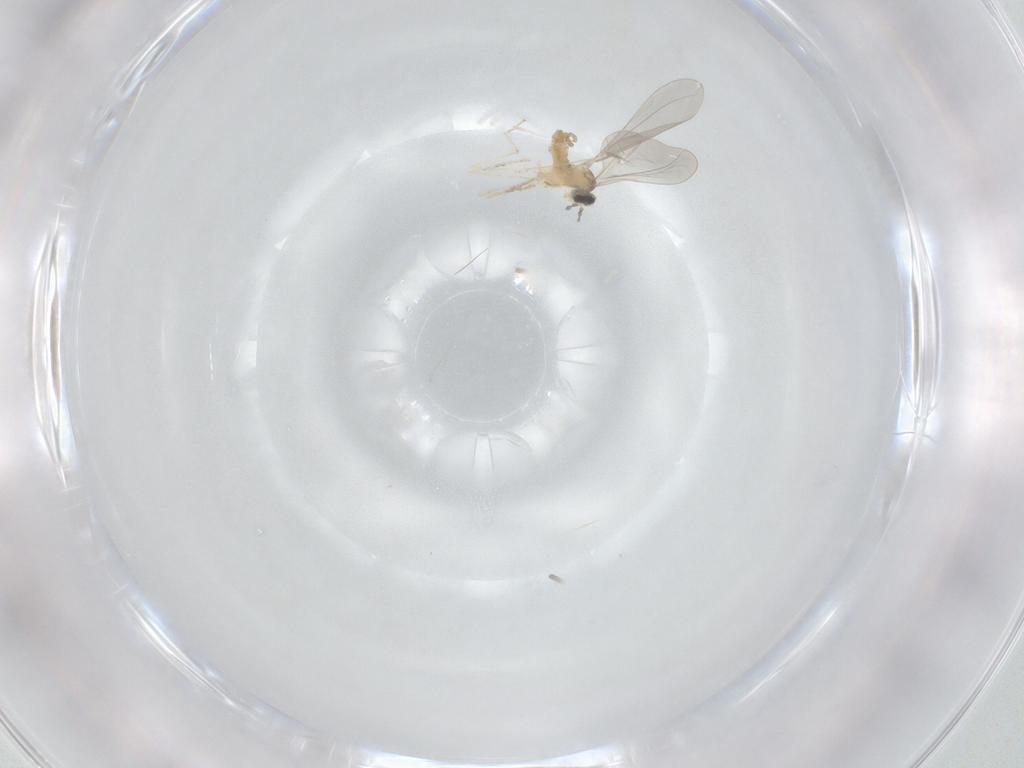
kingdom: Animalia
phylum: Arthropoda
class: Insecta
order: Diptera
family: Cecidomyiidae
